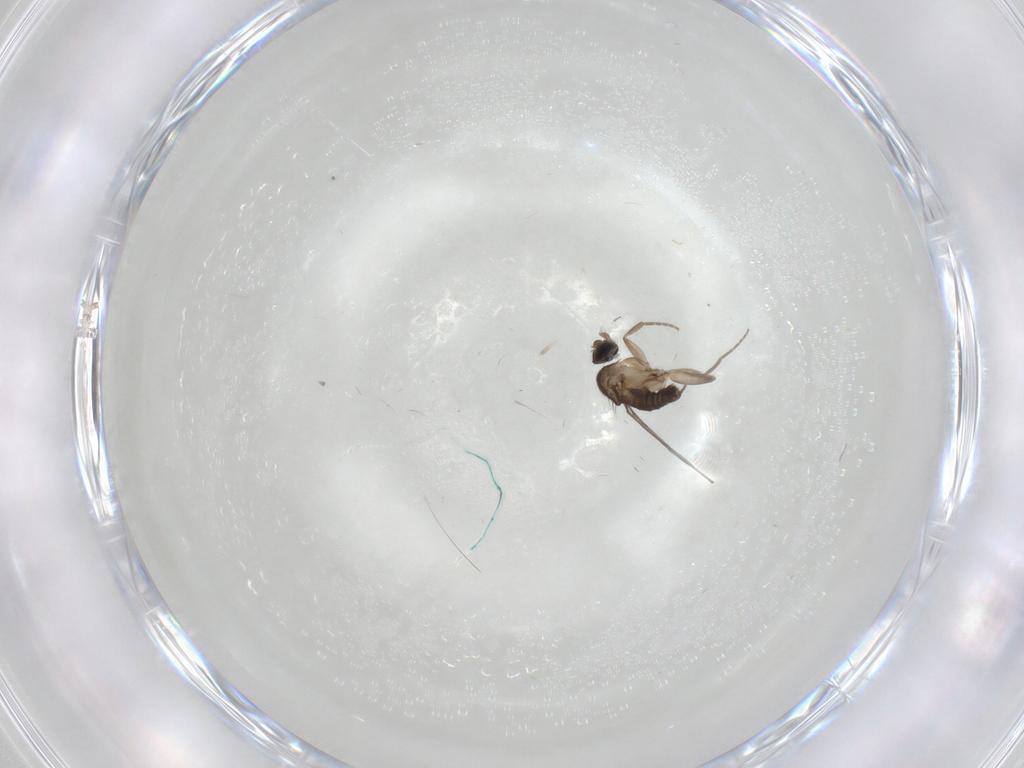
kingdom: Animalia
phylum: Arthropoda
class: Insecta
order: Diptera
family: Phoridae
